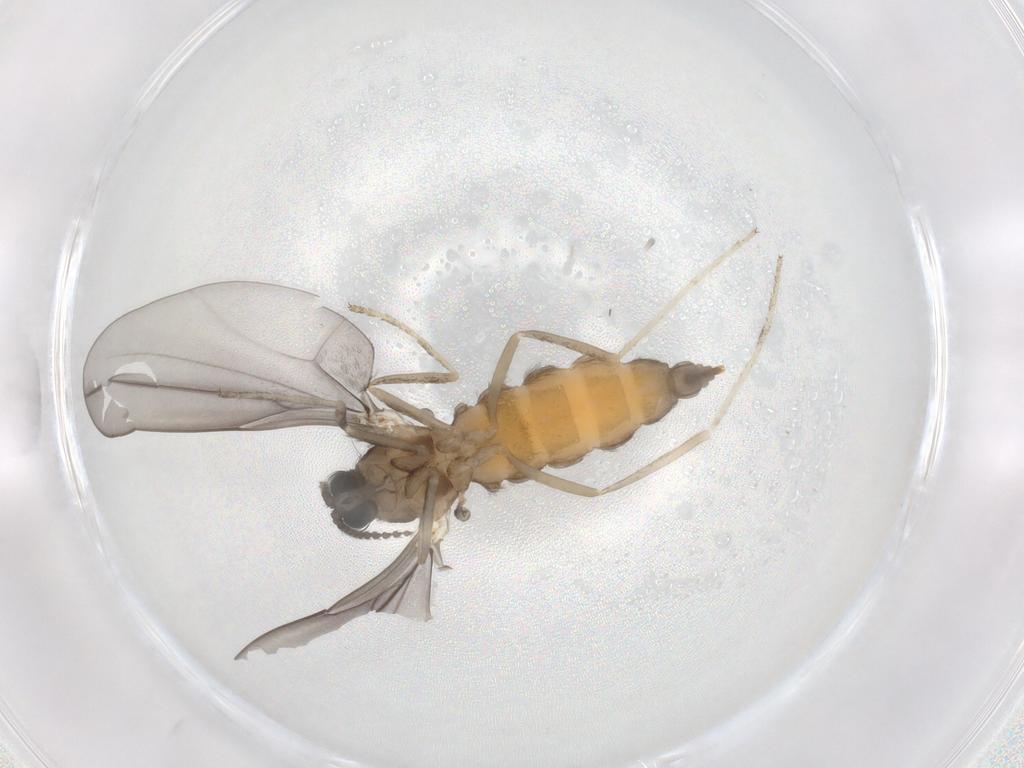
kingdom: Animalia
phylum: Arthropoda
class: Insecta
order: Diptera
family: Cecidomyiidae
